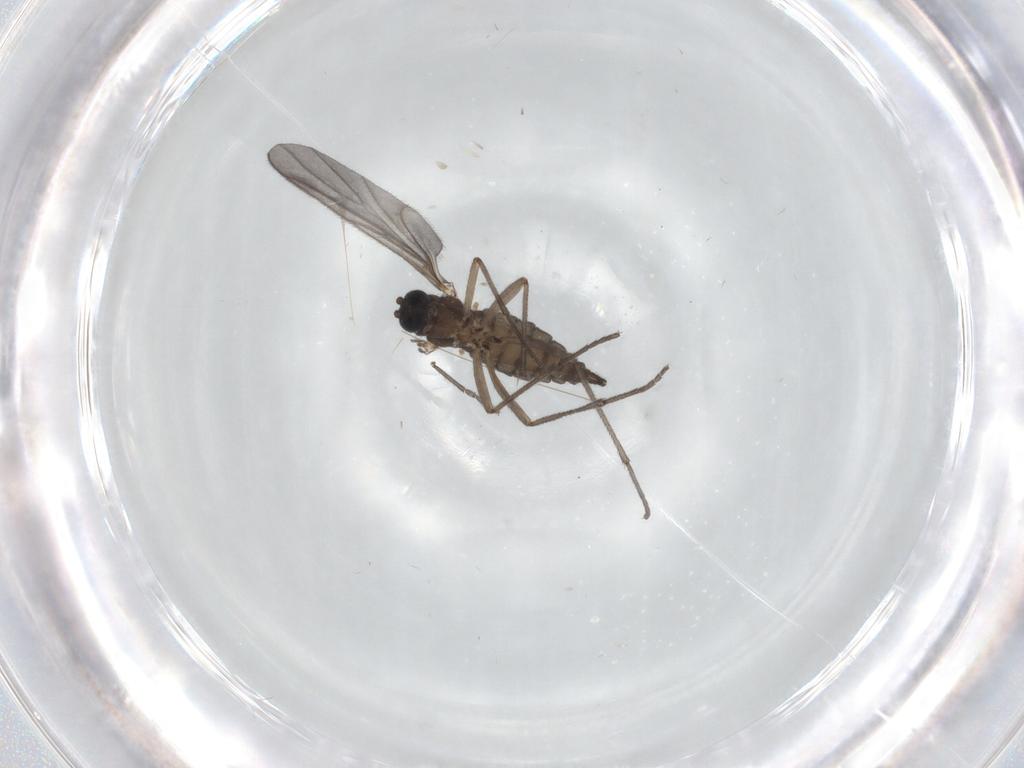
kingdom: Animalia
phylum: Arthropoda
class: Insecta
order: Diptera
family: Sciaridae
